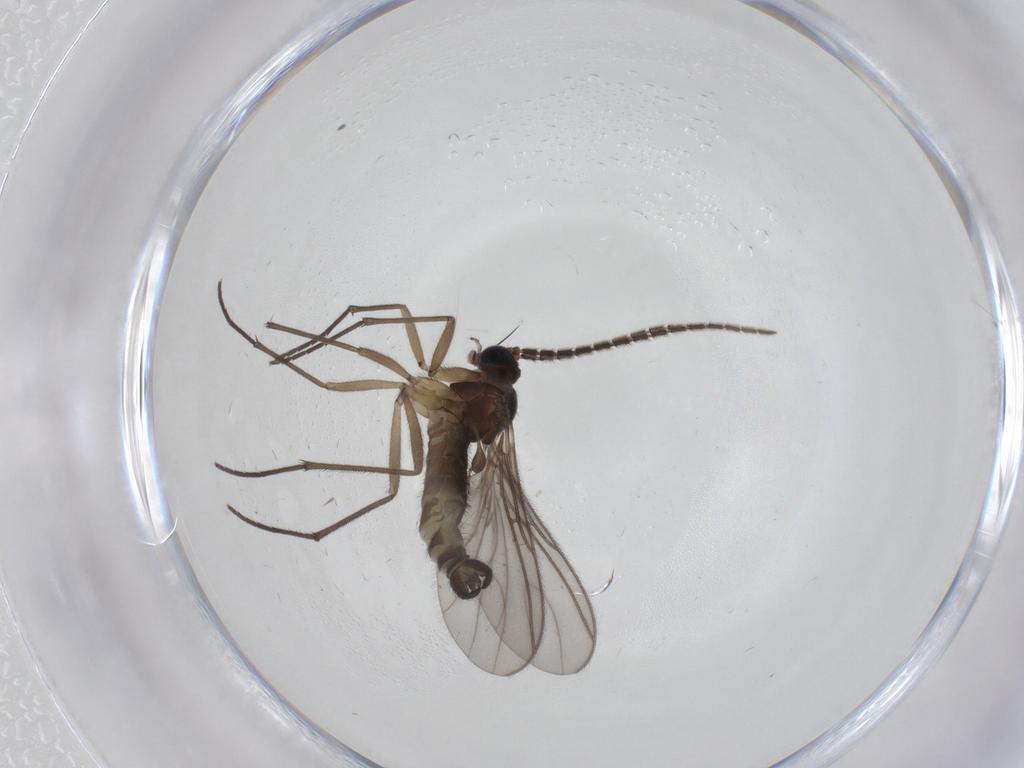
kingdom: Animalia
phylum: Arthropoda
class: Insecta
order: Diptera
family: Sciaridae
